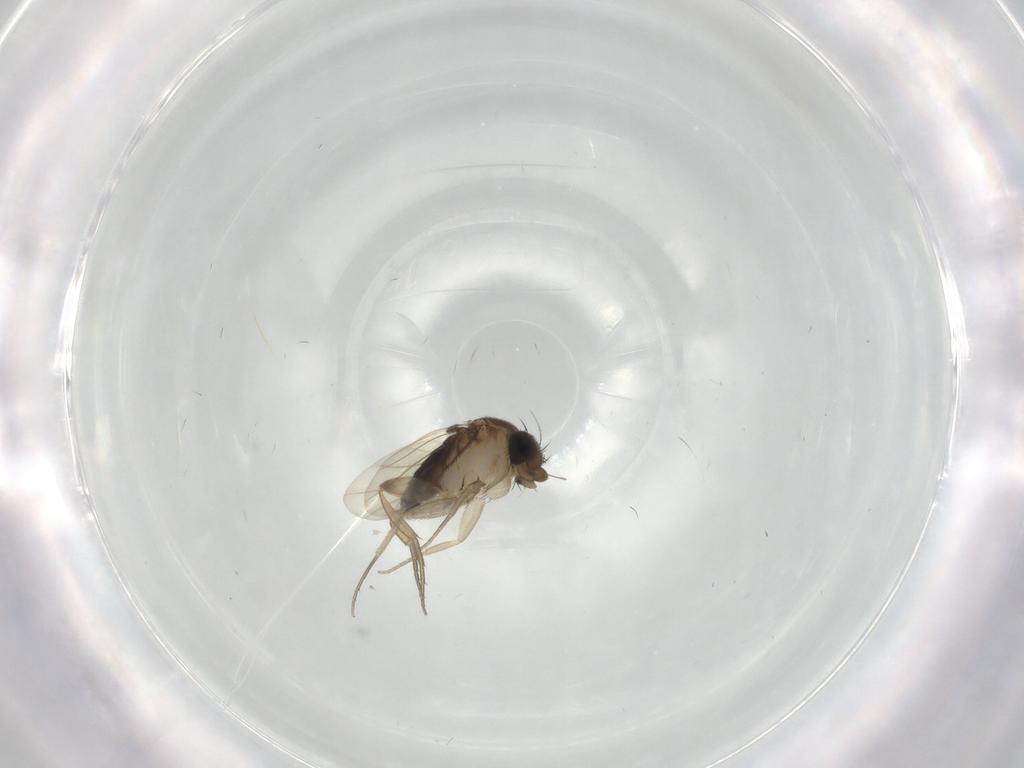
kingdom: Animalia
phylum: Arthropoda
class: Insecta
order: Diptera
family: Phoridae
